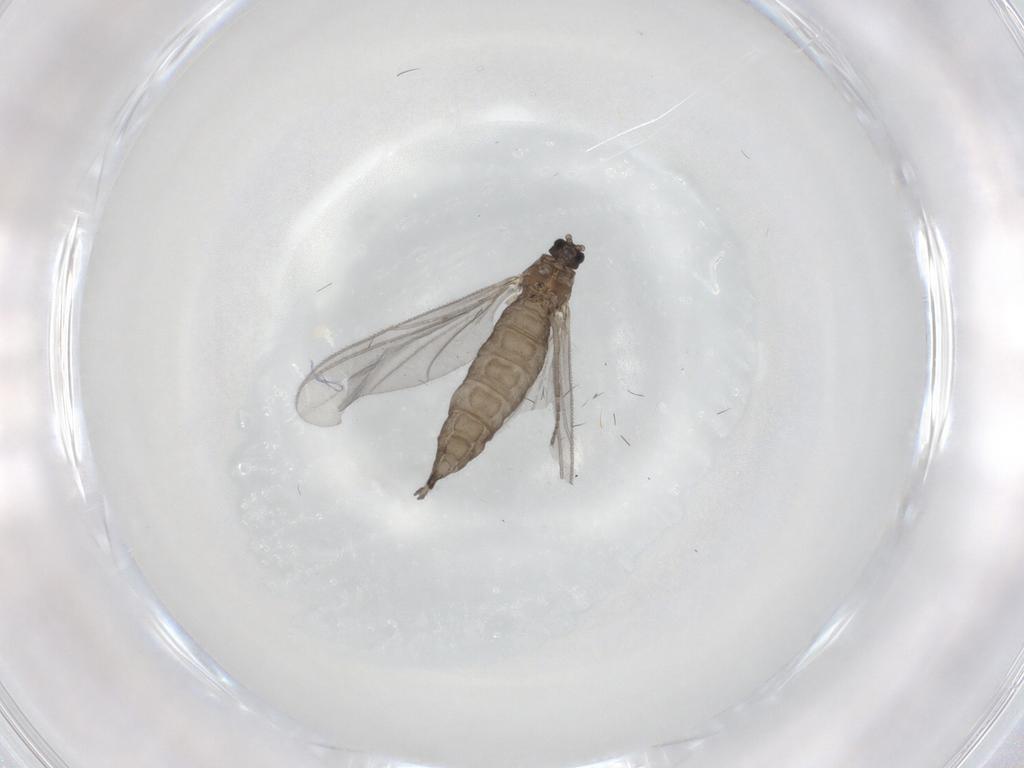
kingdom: Animalia
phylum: Arthropoda
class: Insecta
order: Diptera
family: Sciaridae
